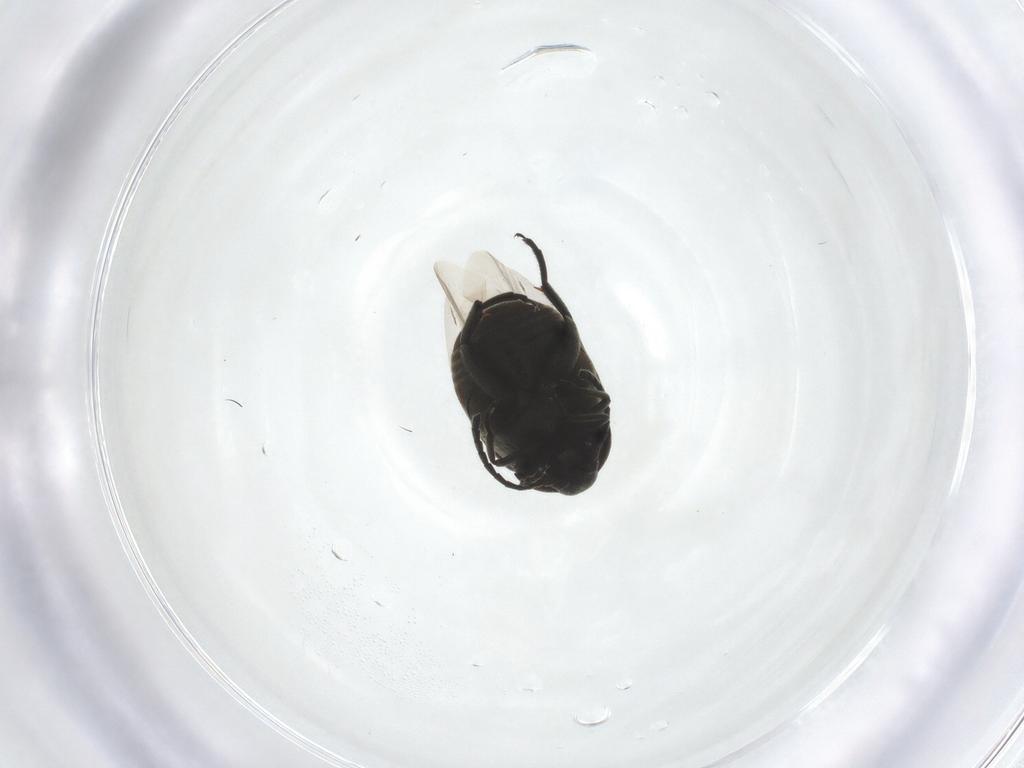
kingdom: Animalia
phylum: Arthropoda
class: Insecta
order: Coleoptera
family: Chrysomelidae
